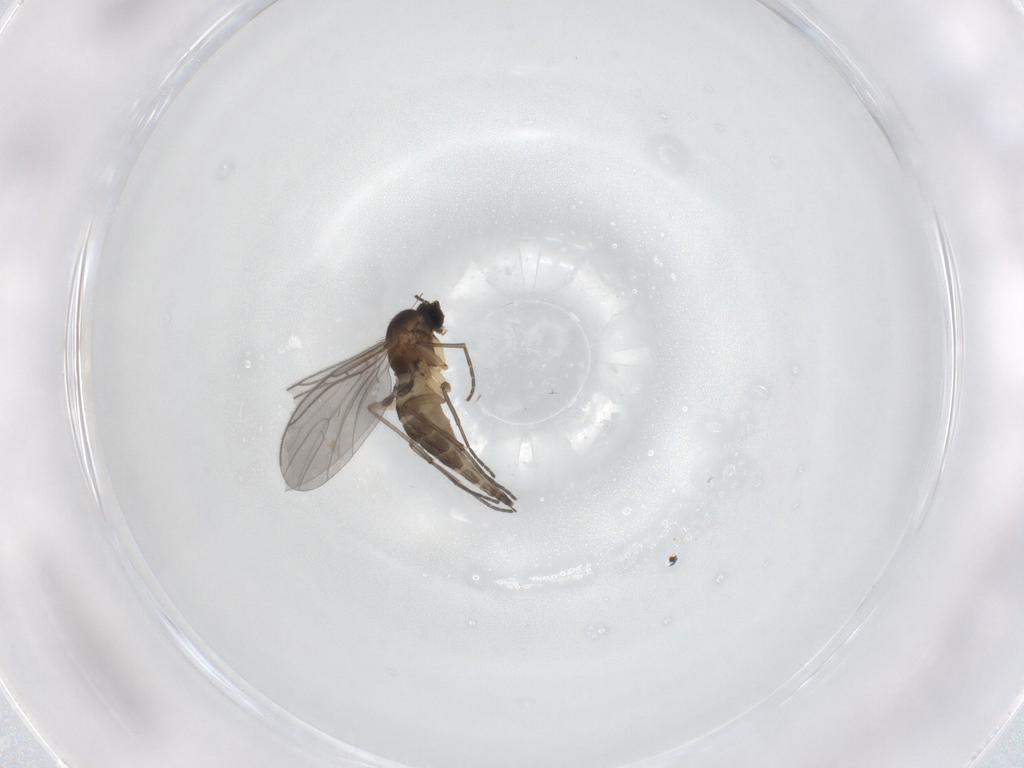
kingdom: Animalia
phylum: Arthropoda
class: Insecta
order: Diptera
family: Sciaridae
